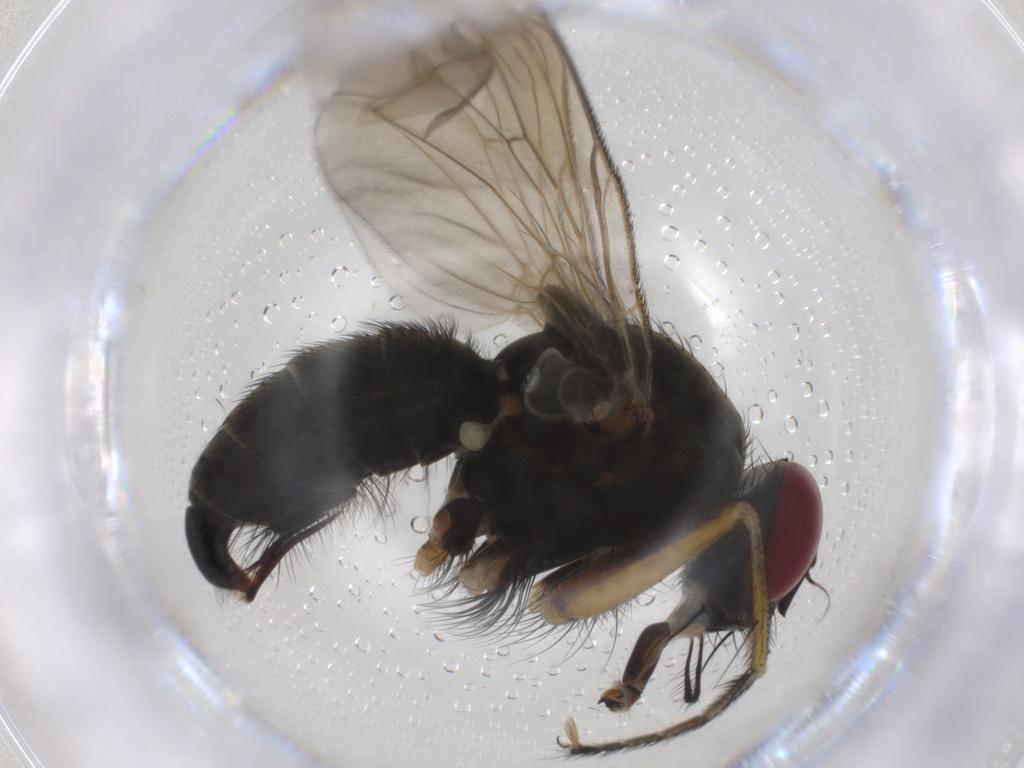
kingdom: Animalia
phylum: Arthropoda
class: Insecta
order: Diptera
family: Muscidae
